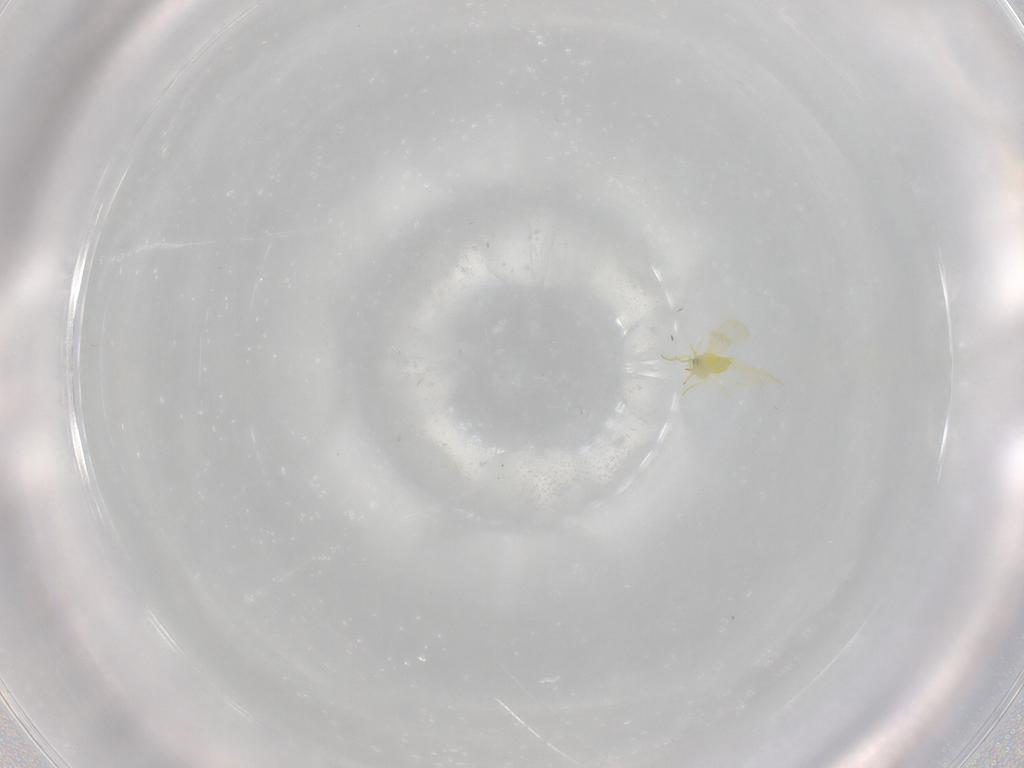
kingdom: Animalia
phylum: Arthropoda
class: Insecta
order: Hemiptera
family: Aleyrodidae
